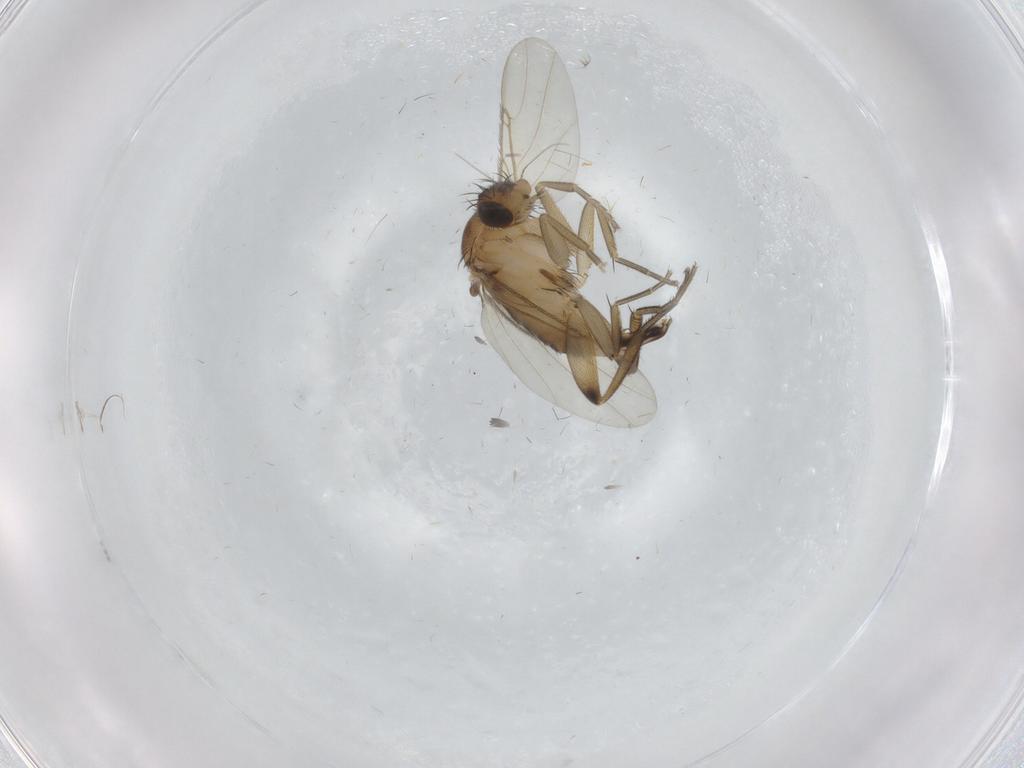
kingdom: Animalia
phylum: Arthropoda
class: Insecta
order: Diptera
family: Phoridae
